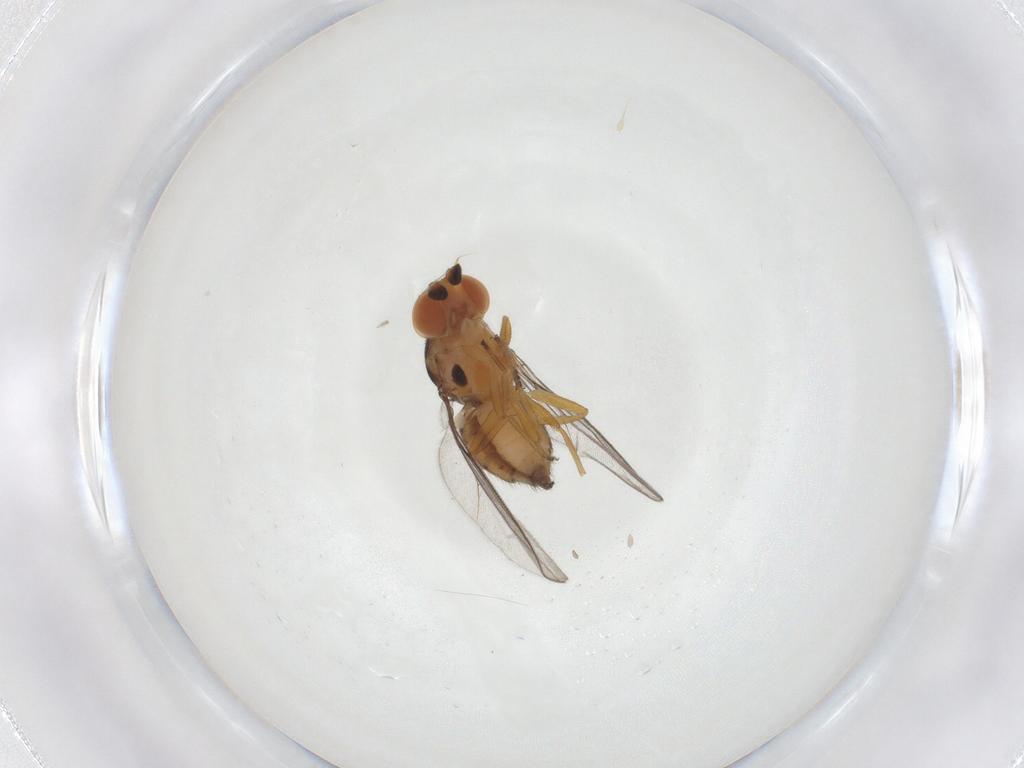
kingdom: Animalia
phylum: Arthropoda
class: Insecta
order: Diptera
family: Chloropidae
